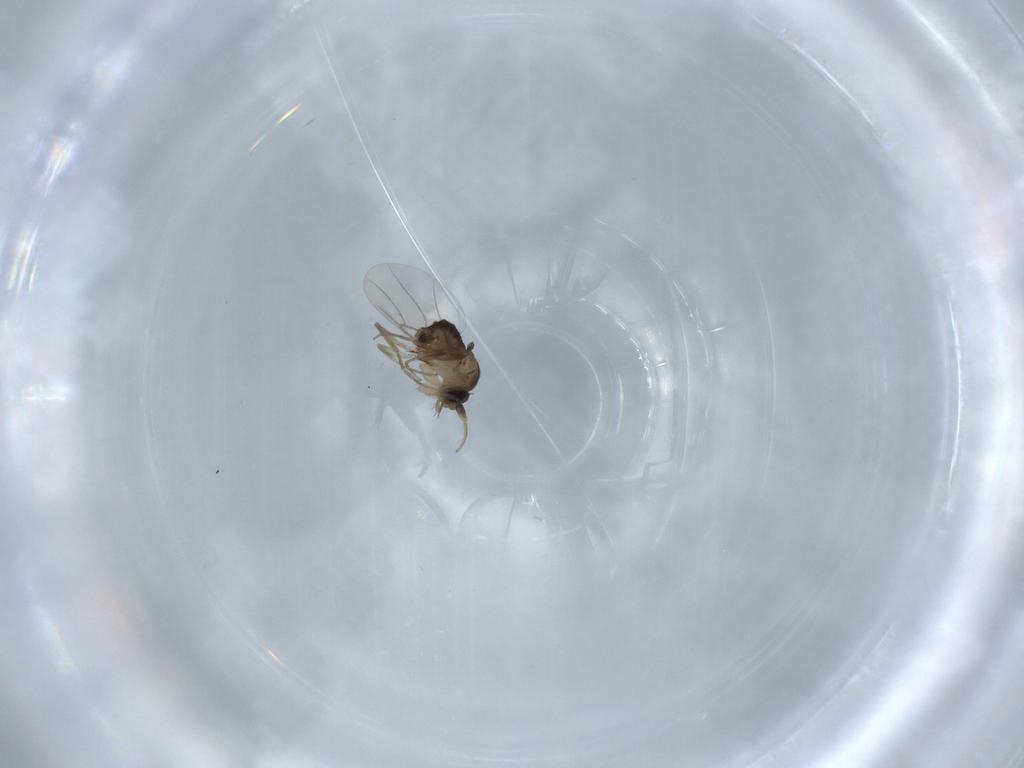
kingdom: Animalia
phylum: Arthropoda
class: Insecta
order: Diptera
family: Phoridae
